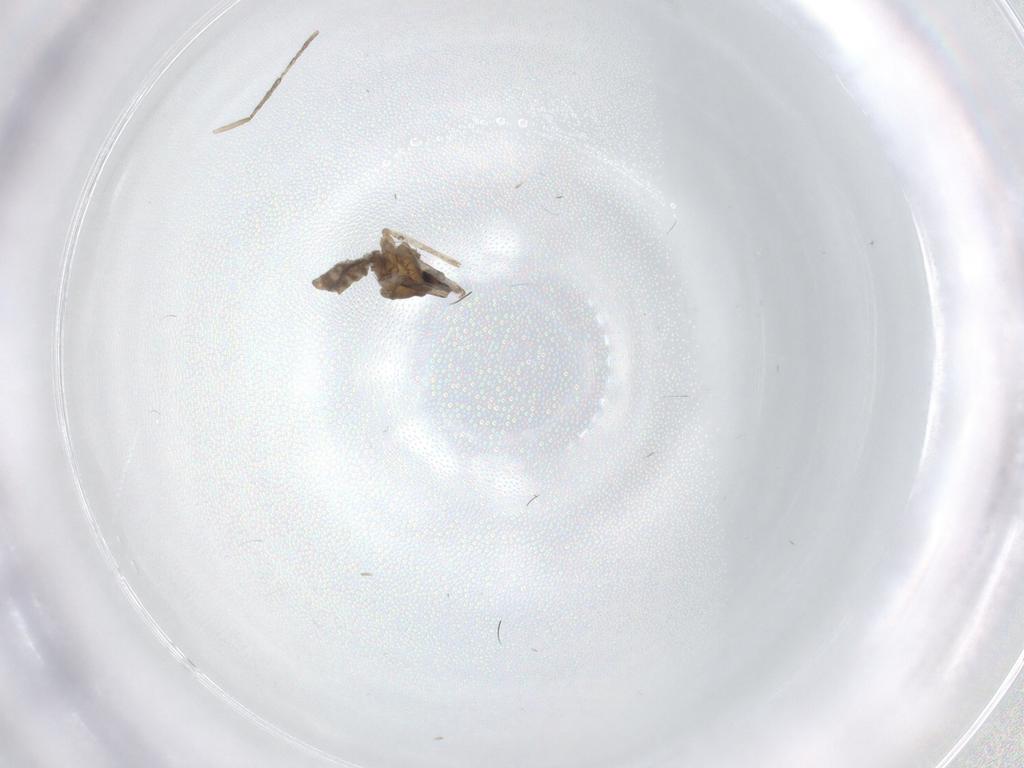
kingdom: Animalia
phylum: Arthropoda
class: Insecta
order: Diptera
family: Cecidomyiidae
